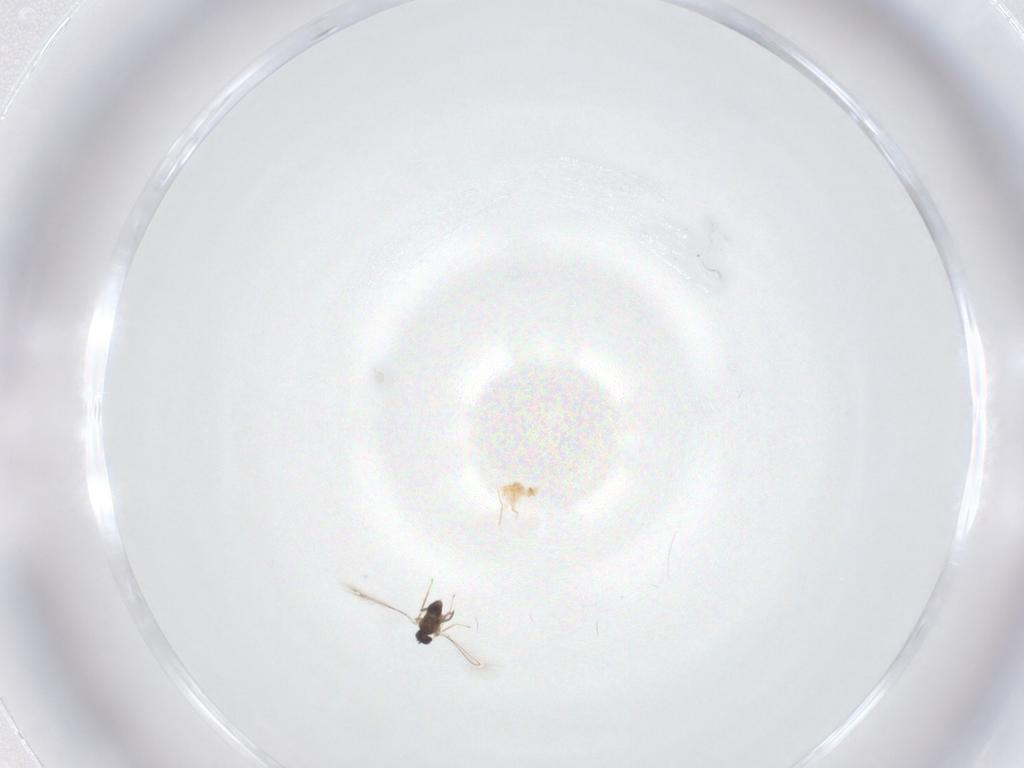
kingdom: Animalia
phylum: Arthropoda
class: Insecta
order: Hymenoptera
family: Mymaridae
